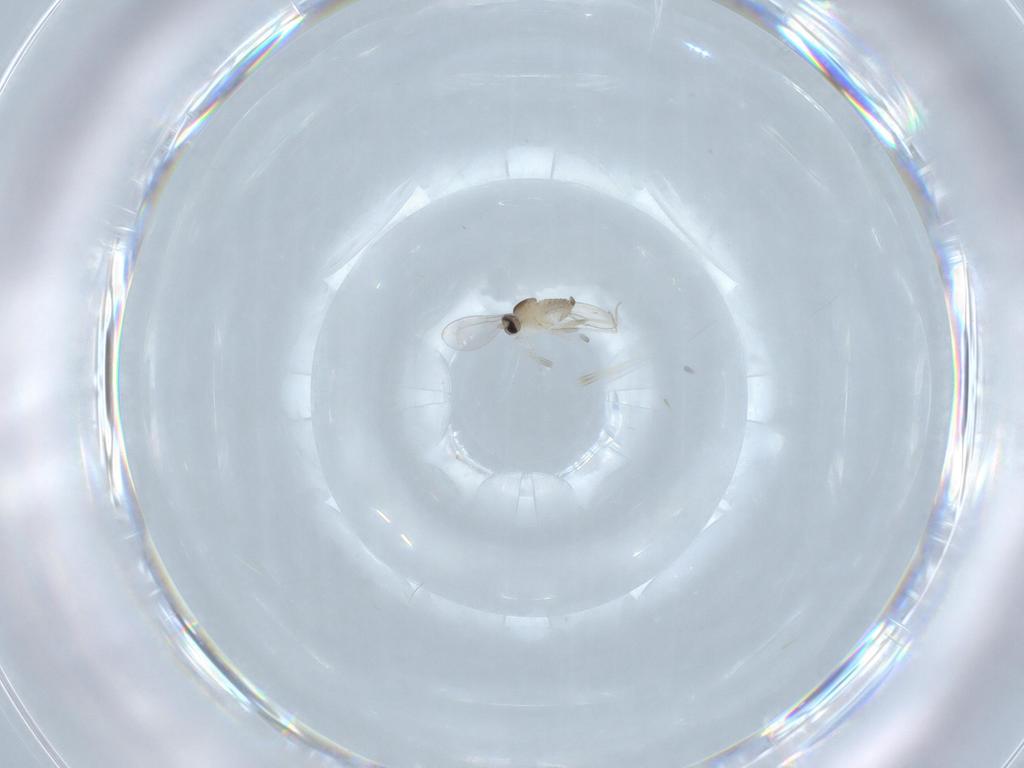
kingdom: Animalia
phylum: Arthropoda
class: Insecta
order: Diptera
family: Cecidomyiidae
